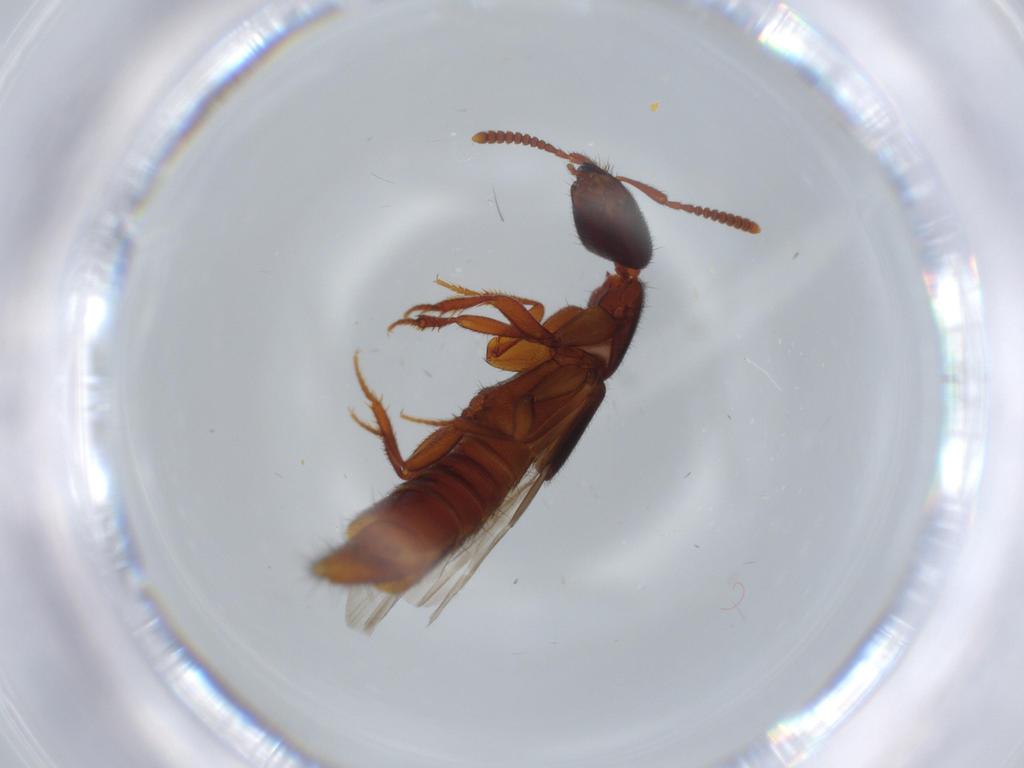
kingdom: Animalia
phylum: Arthropoda
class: Insecta
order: Coleoptera
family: Staphylinidae
